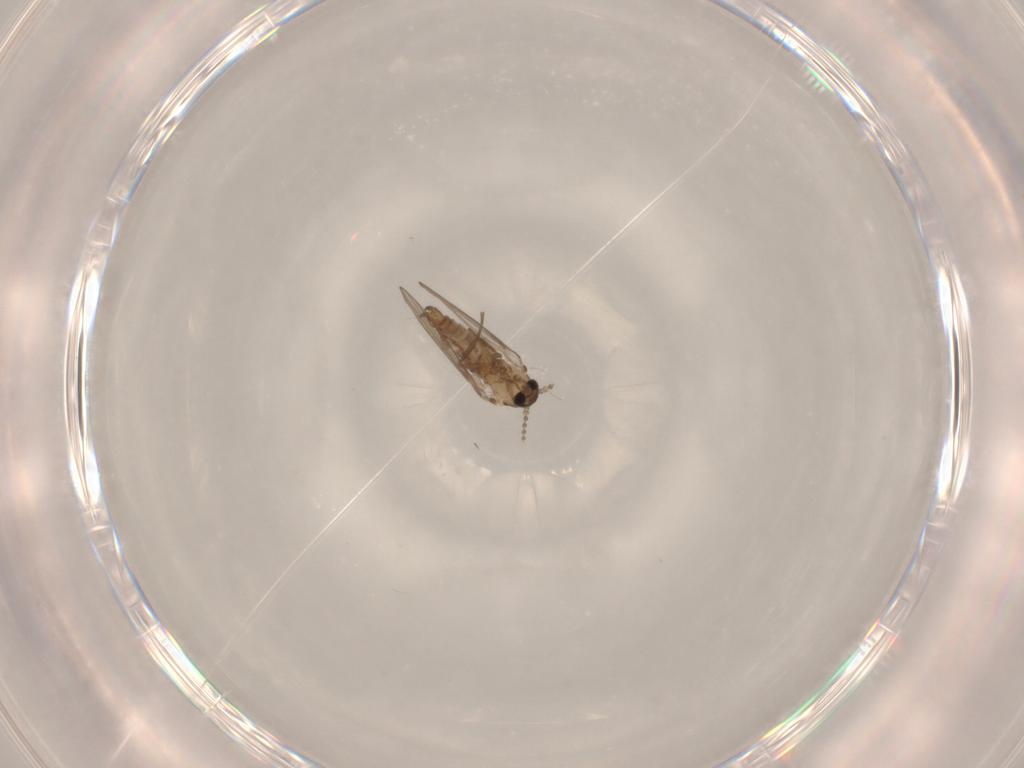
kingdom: Animalia
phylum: Arthropoda
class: Insecta
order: Diptera
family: Psychodidae
